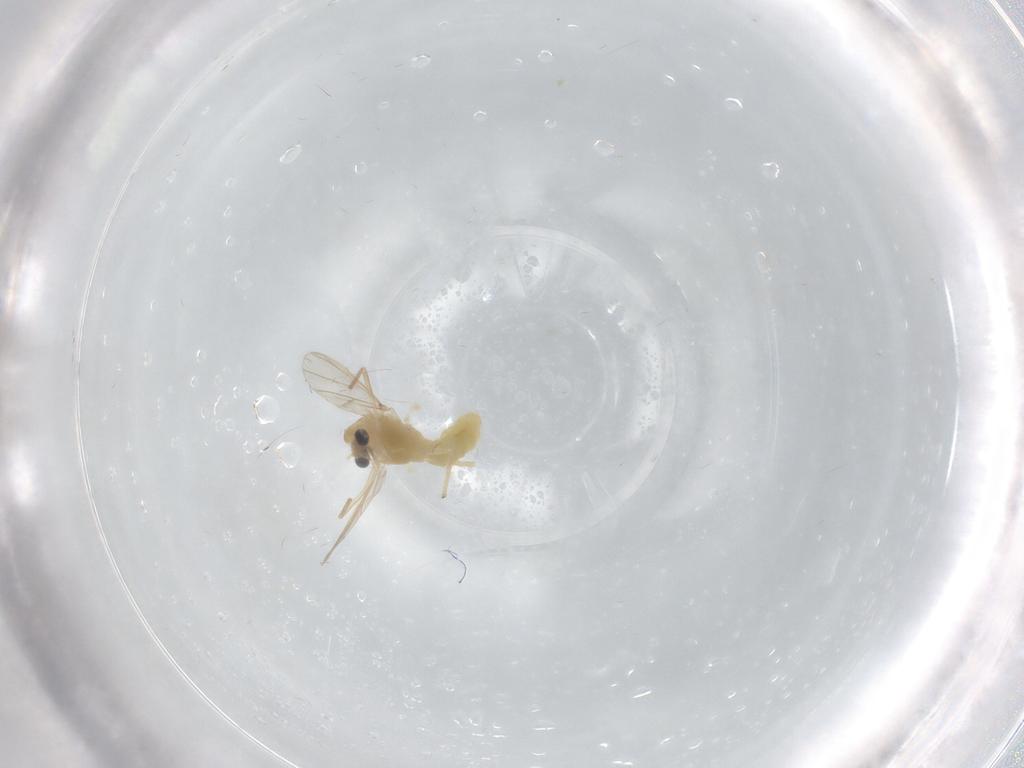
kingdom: Animalia
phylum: Arthropoda
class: Insecta
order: Diptera
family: Chironomidae
